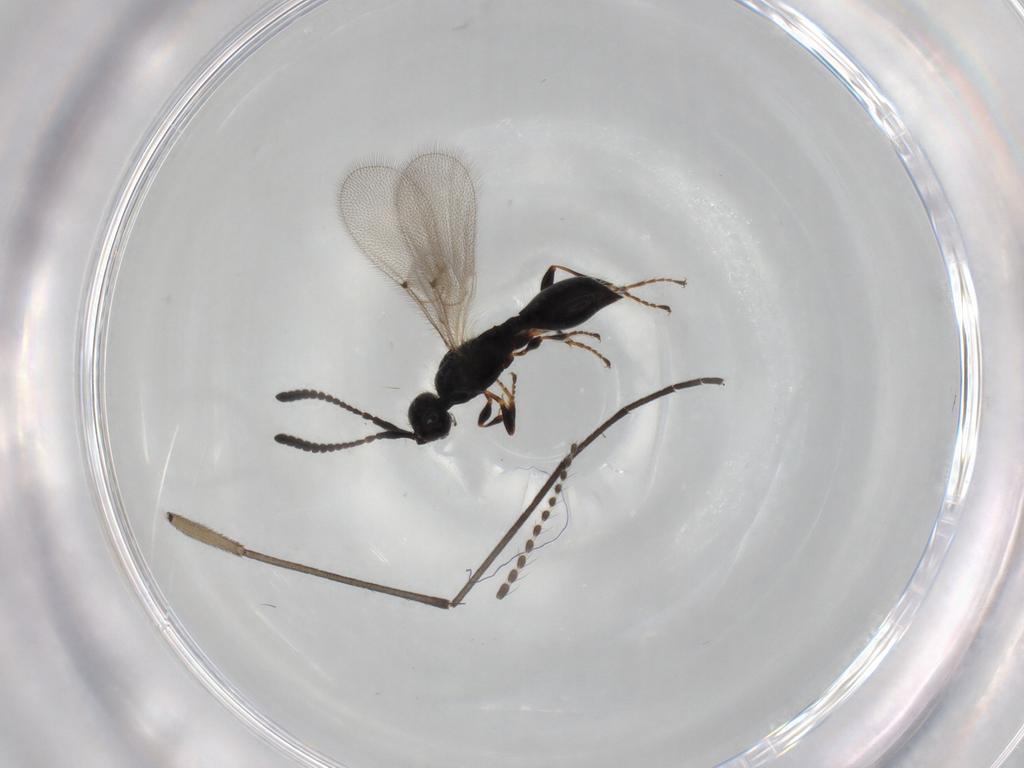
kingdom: Animalia
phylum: Arthropoda
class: Insecta
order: Hymenoptera
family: Diapriidae
